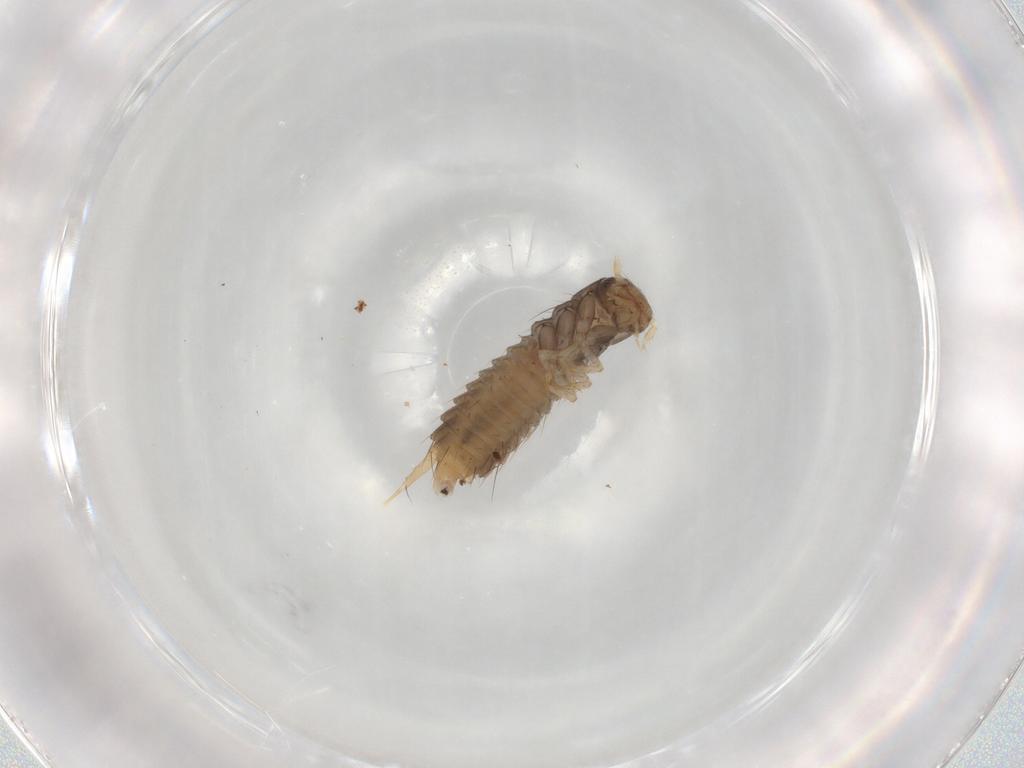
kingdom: Animalia
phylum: Arthropoda
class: Insecta
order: Coleoptera
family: Staphylinidae
